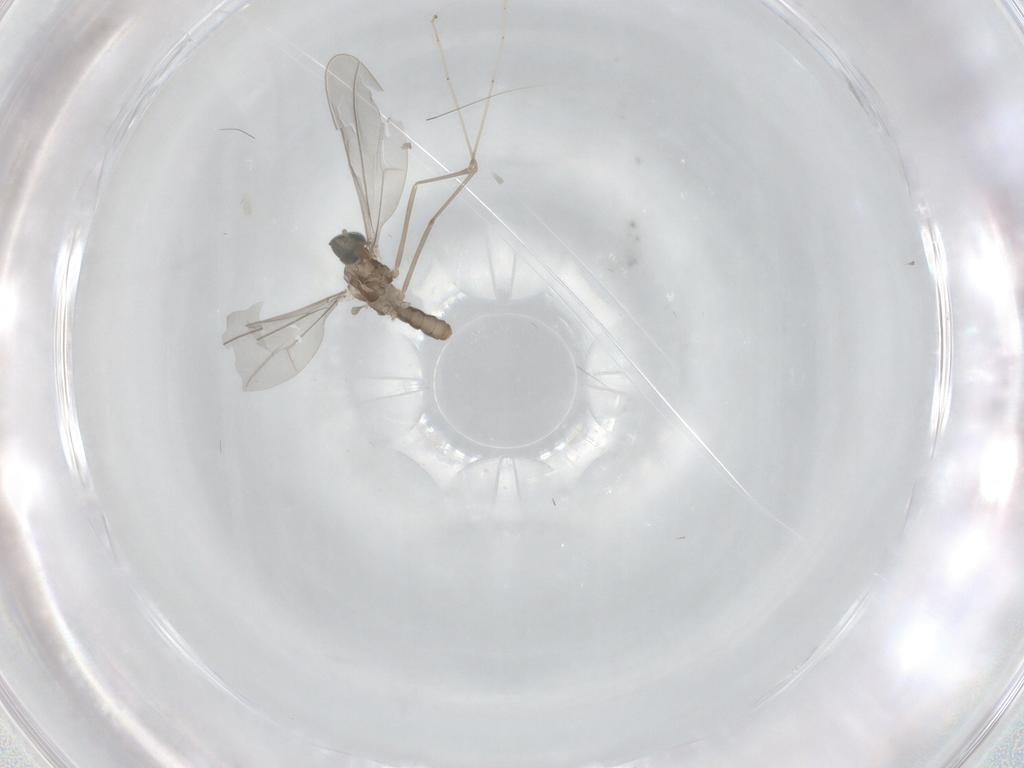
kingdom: Animalia
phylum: Arthropoda
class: Insecta
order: Diptera
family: Cecidomyiidae
